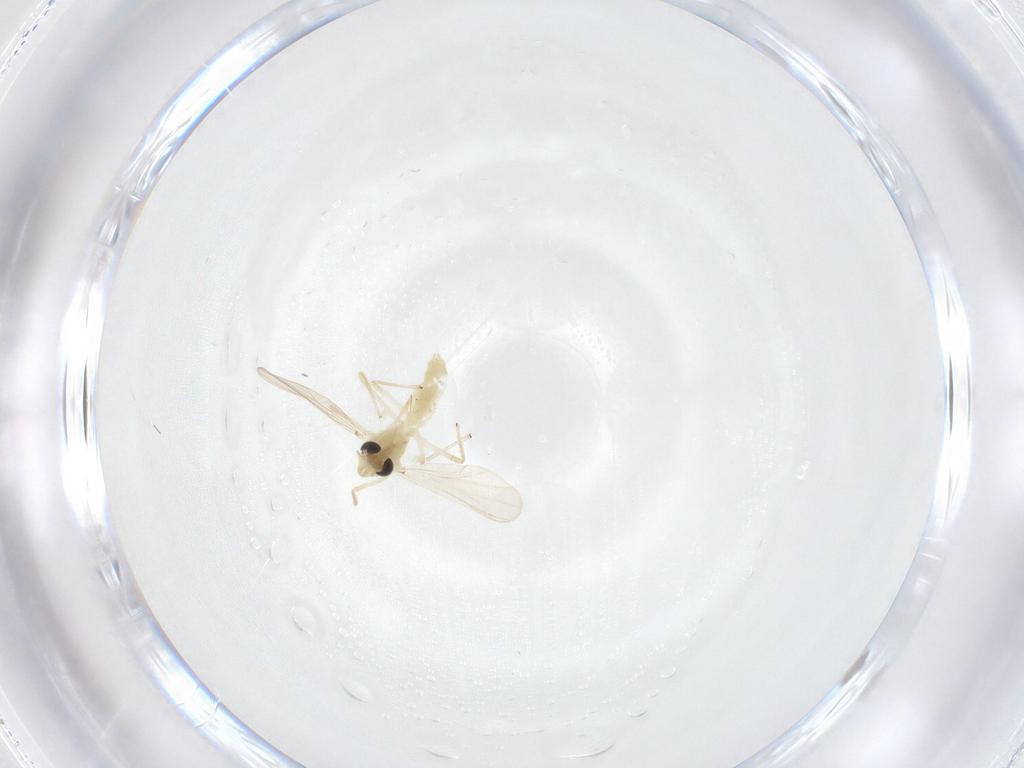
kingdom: Animalia
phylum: Arthropoda
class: Insecta
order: Diptera
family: Chironomidae
